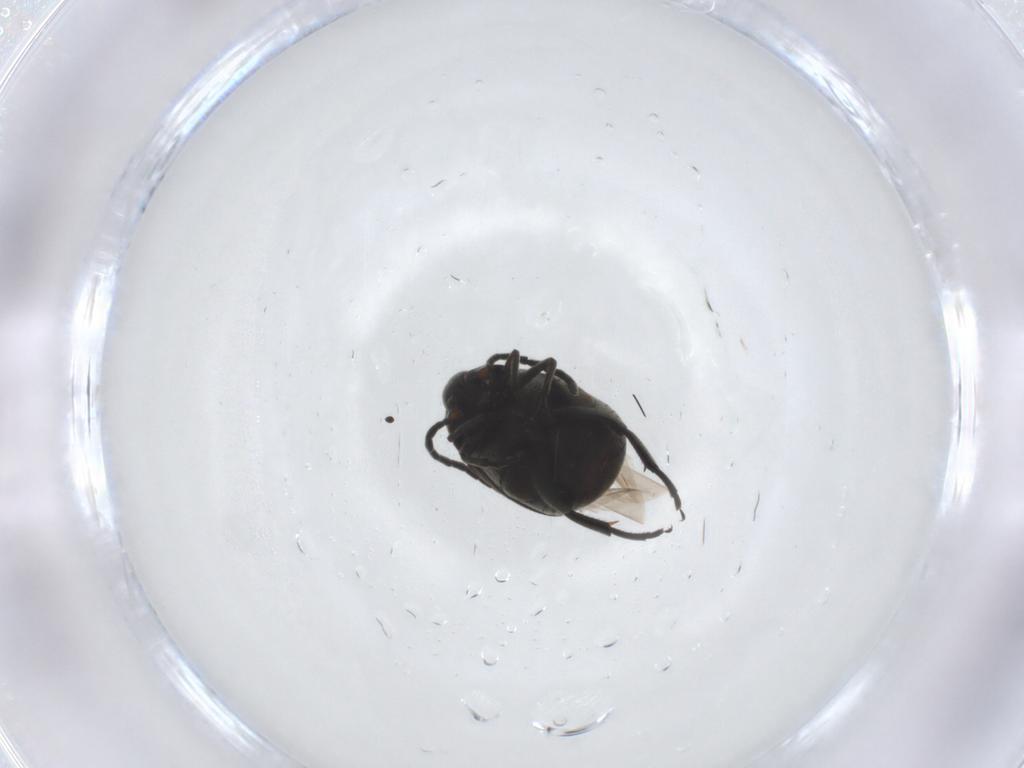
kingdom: Animalia
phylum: Arthropoda
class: Insecta
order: Coleoptera
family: Chrysomelidae
